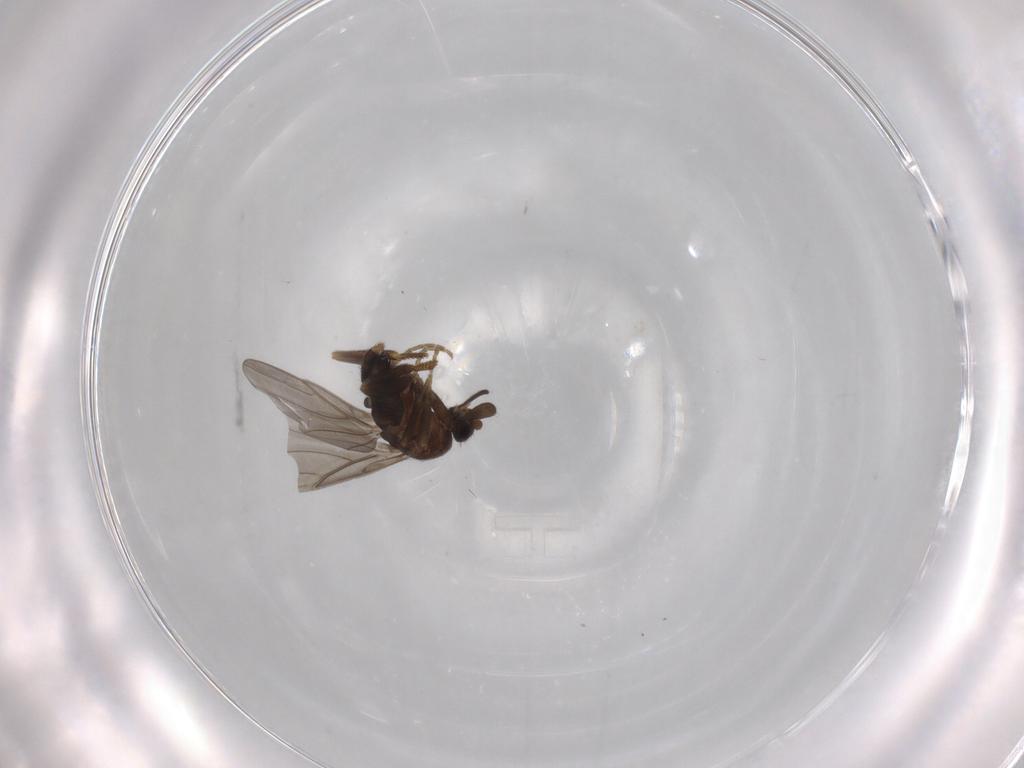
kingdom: Animalia
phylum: Arthropoda
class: Insecta
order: Diptera
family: Phoridae
